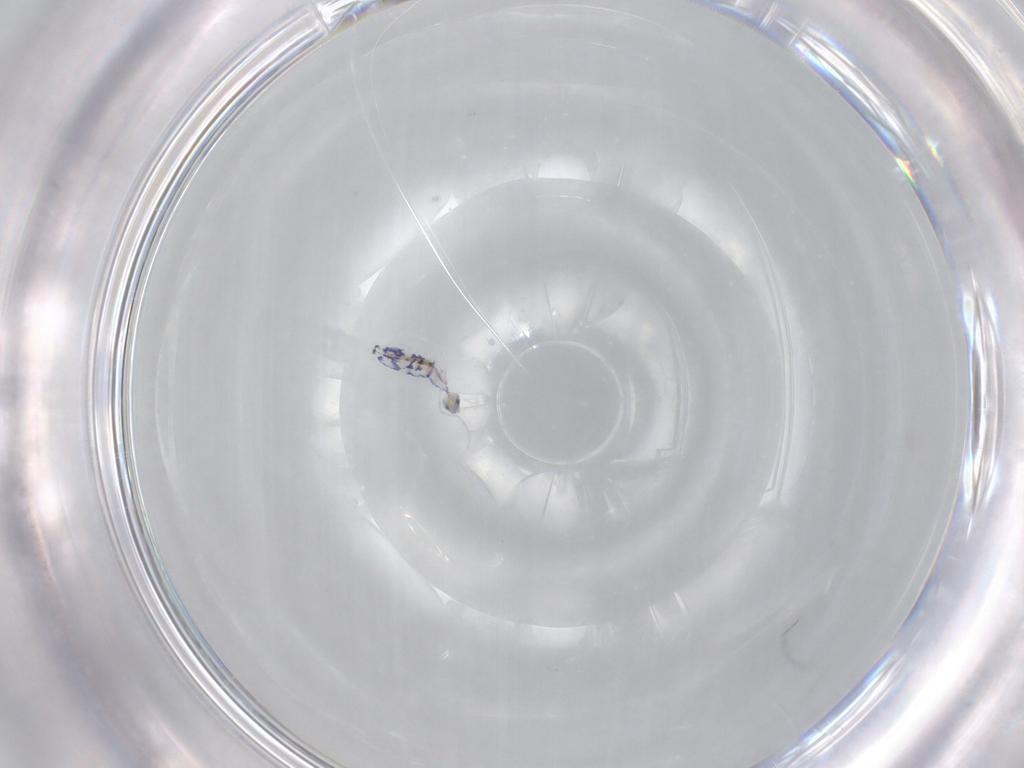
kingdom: Animalia
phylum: Arthropoda
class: Collembola
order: Entomobryomorpha
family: Entomobryidae
